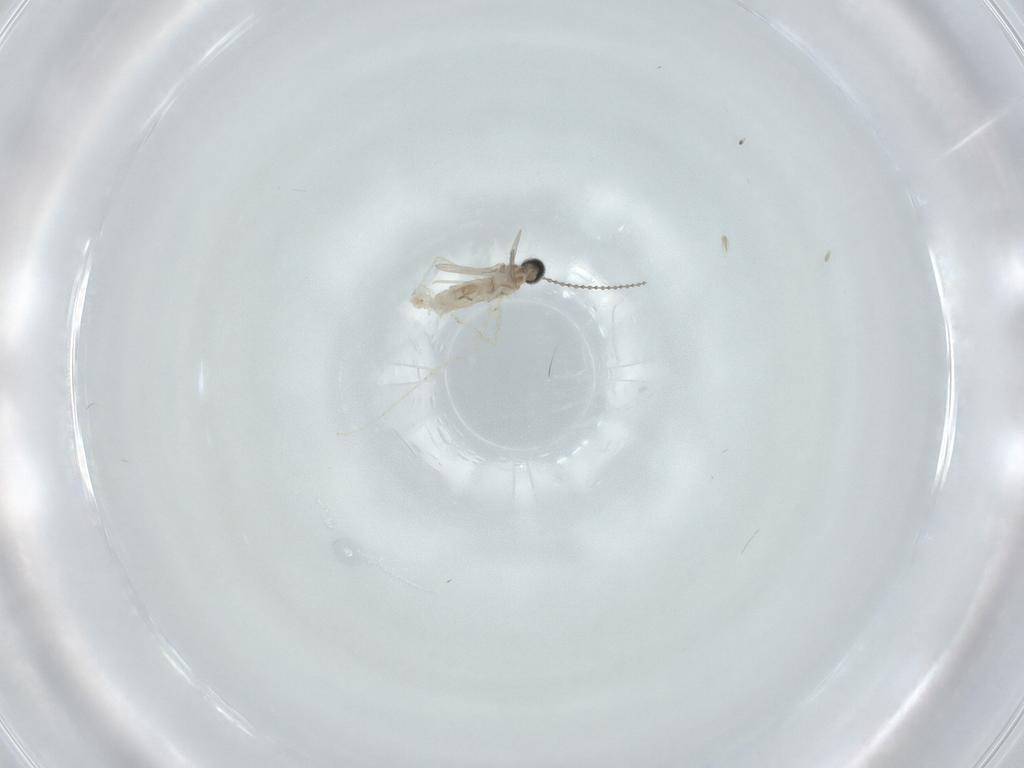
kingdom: Animalia
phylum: Arthropoda
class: Insecta
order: Diptera
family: Cecidomyiidae
